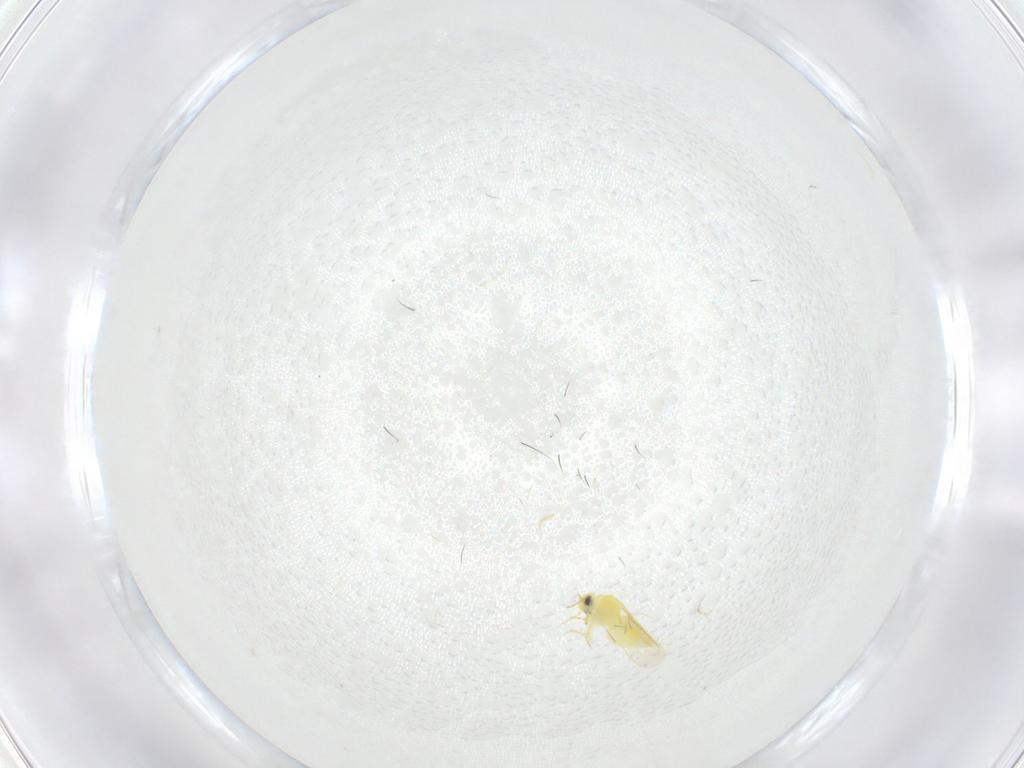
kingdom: Animalia
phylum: Arthropoda
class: Insecta
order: Hemiptera
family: Aleyrodidae
